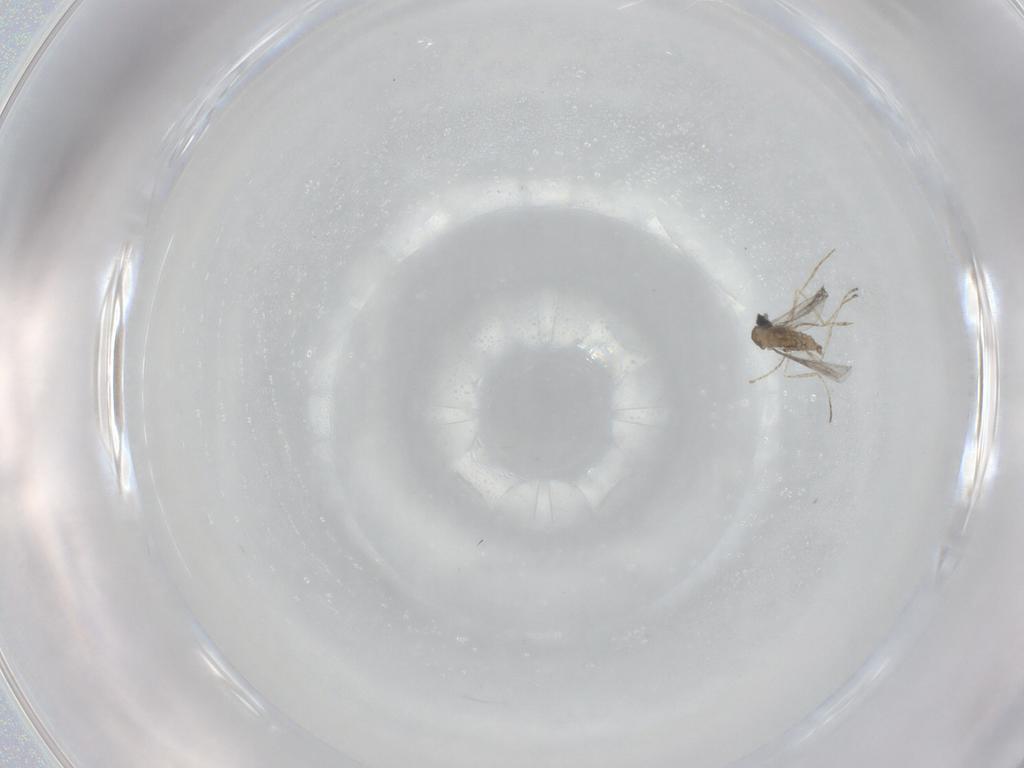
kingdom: Animalia
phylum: Arthropoda
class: Insecta
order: Diptera
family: Cecidomyiidae
